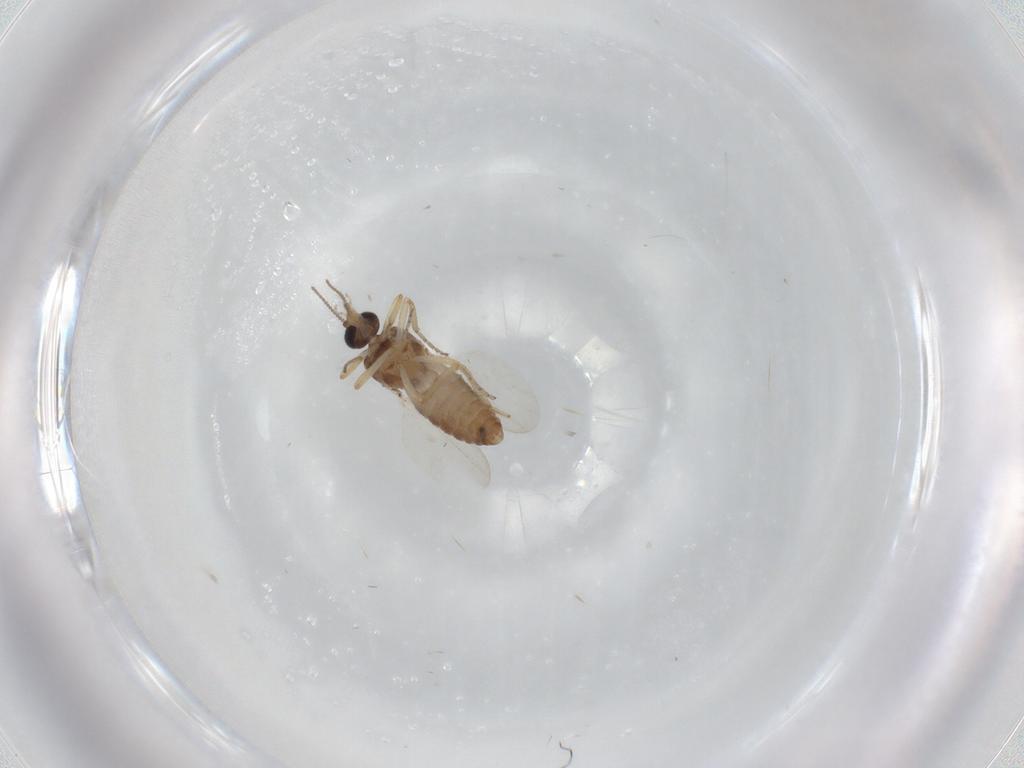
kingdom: Animalia
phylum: Arthropoda
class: Insecta
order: Diptera
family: Ceratopogonidae
